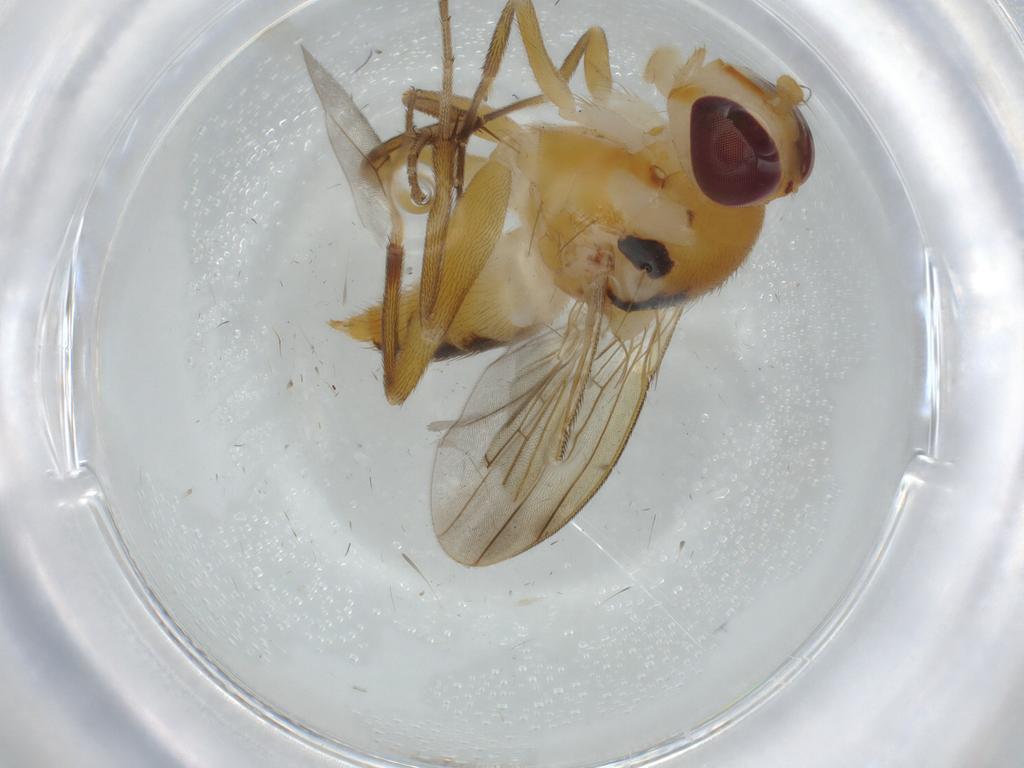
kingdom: Animalia
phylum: Arthropoda
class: Insecta
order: Diptera
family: Clusiidae
